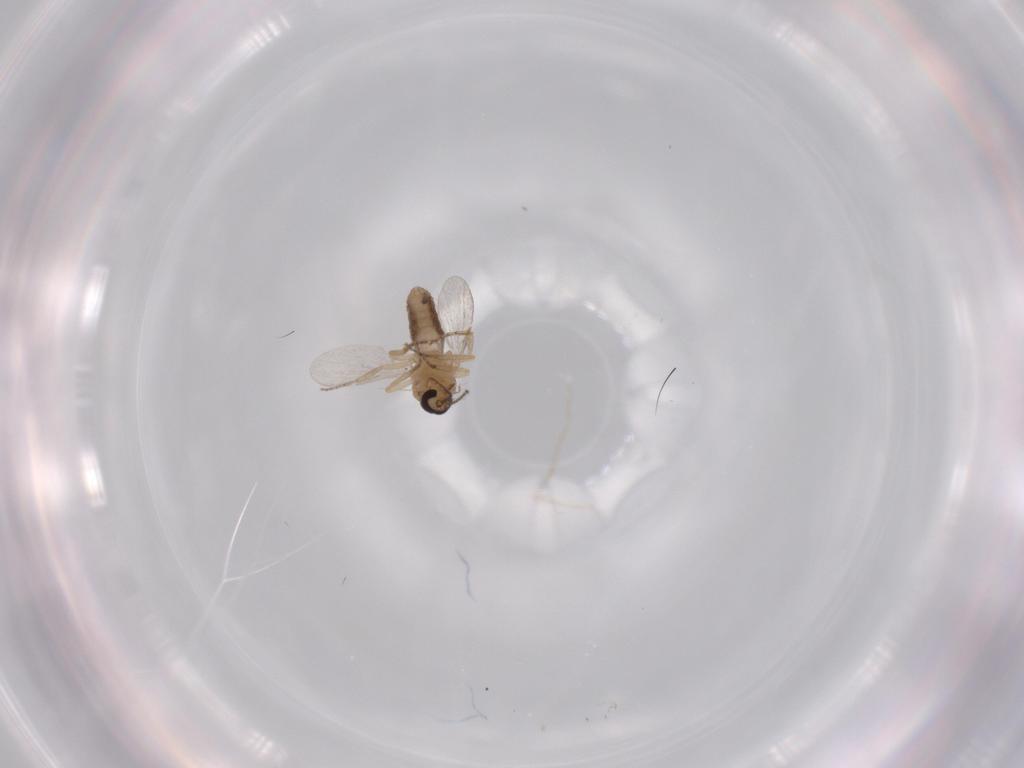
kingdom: Animalia
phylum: Arthropoda
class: Insecta
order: Diptera
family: Ceratopogonidae
